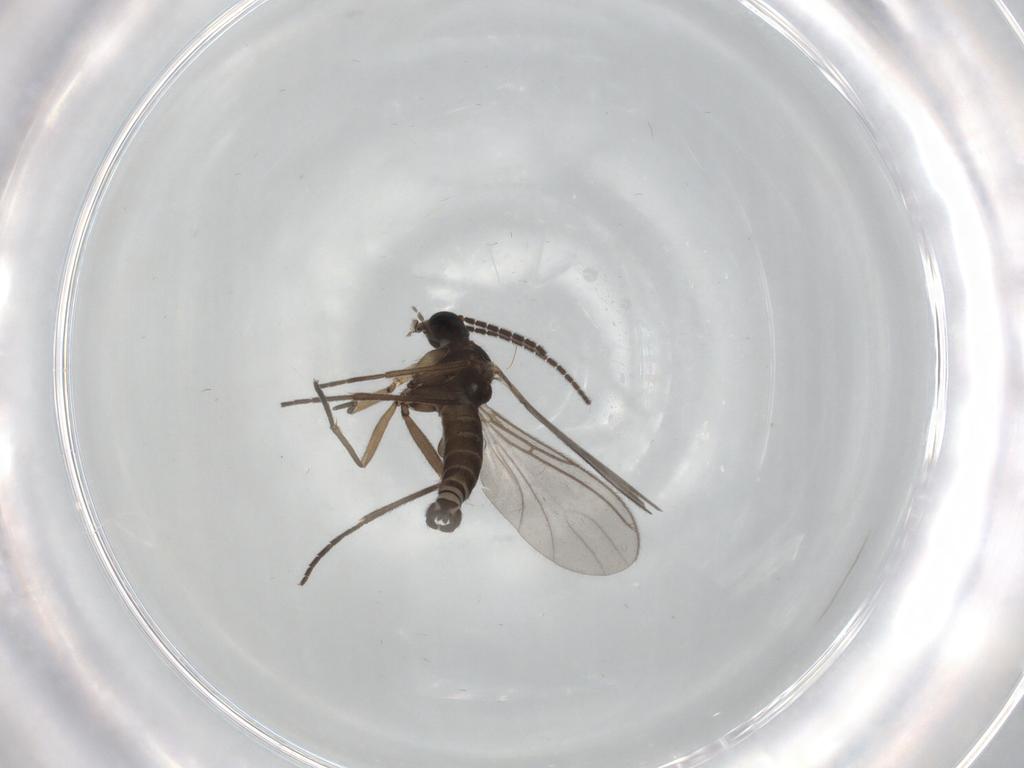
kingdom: Animalia
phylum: Arthropoda
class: Insecta
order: Diptera
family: Sciaridae
